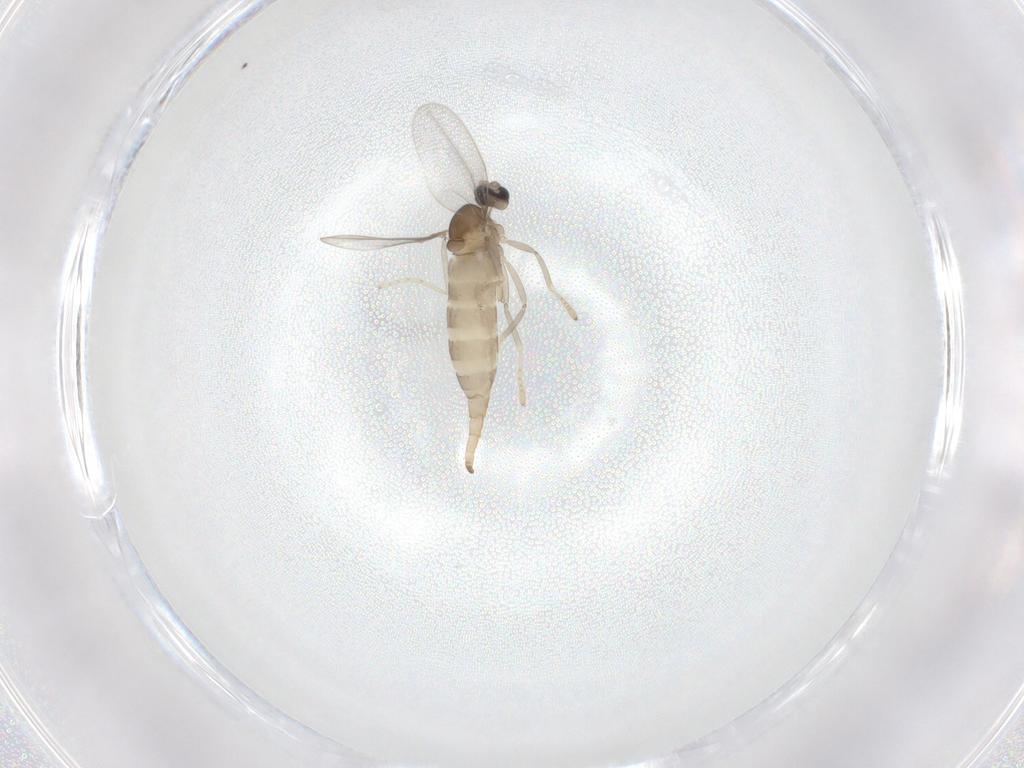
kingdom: Animalia
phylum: Arthropoda
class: Insecta
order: Diptera
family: Cecidomyiidae
